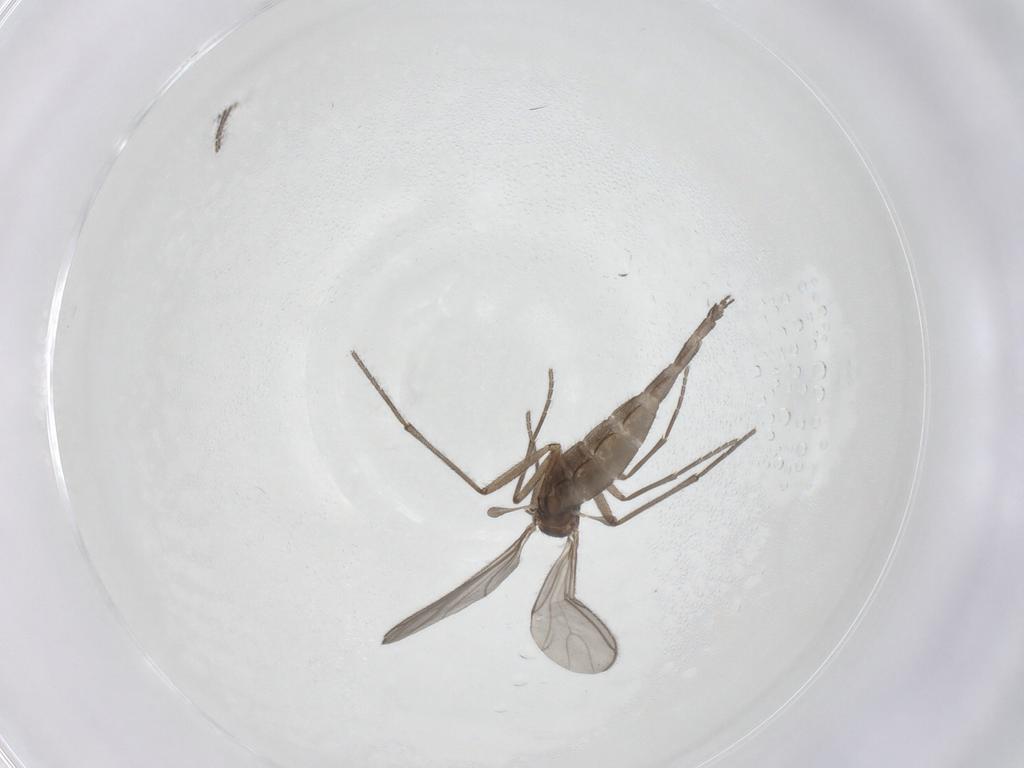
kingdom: Animalia
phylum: Arthropoda
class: Insecta
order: Diptera
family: Sciaridae
